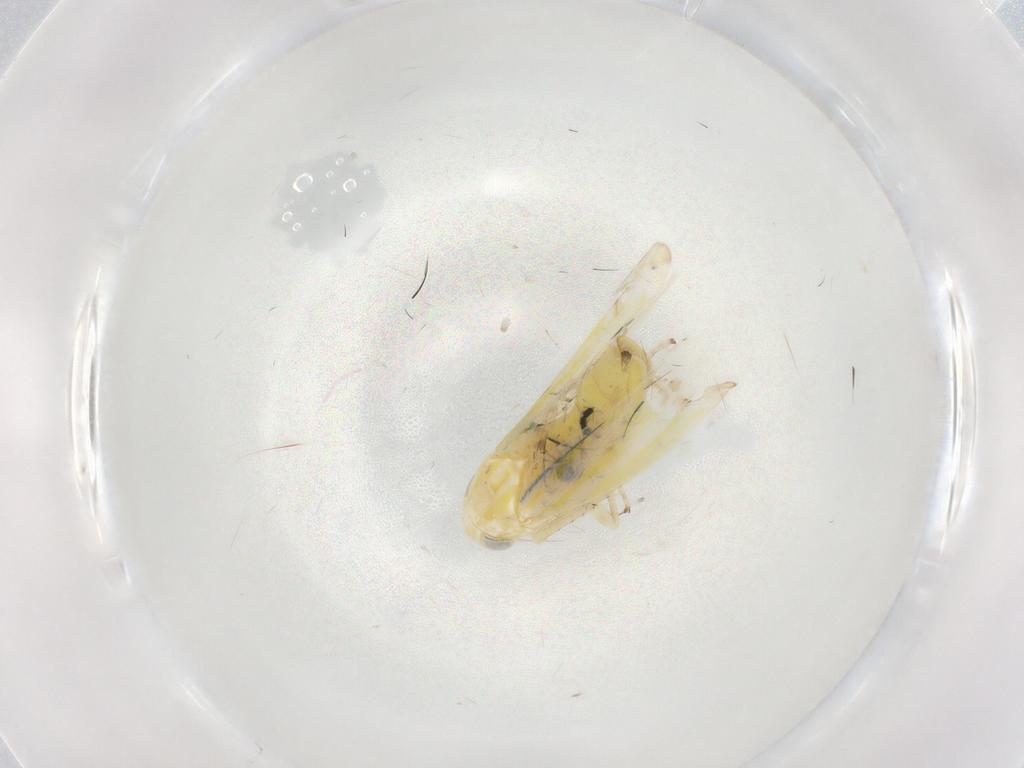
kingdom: Animalia
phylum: Arthropoda
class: Insecta
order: Hemiptera
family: Cicadellidae
